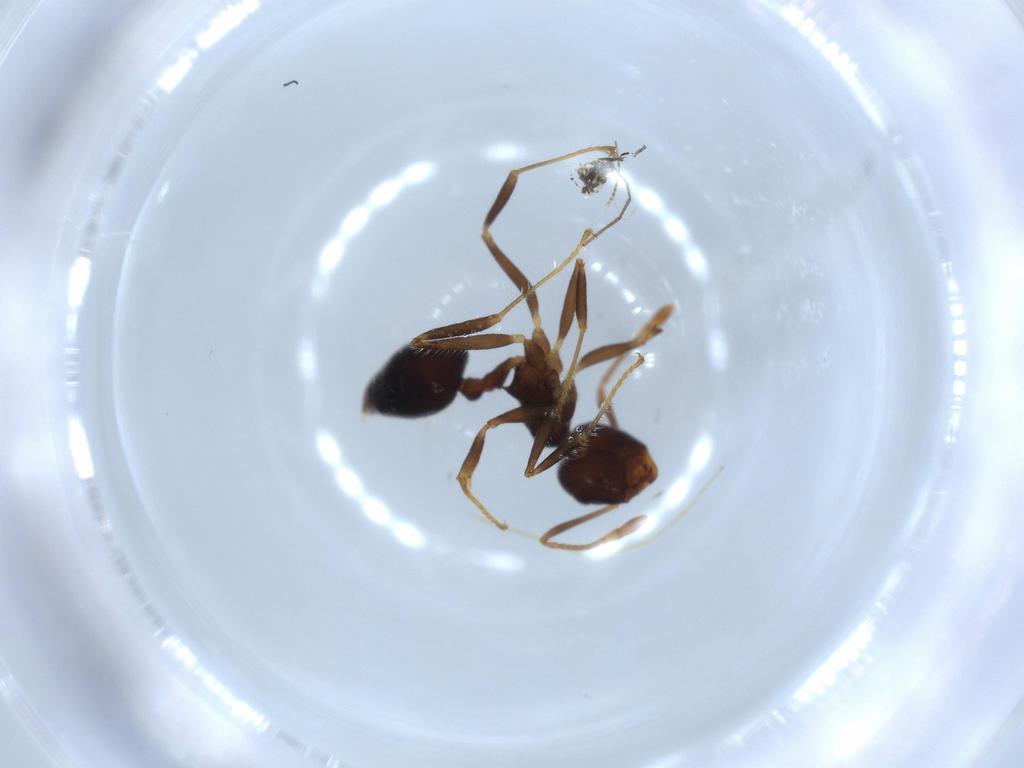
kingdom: Animalia
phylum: Arthropoda
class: Insecta
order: Hymenoptera
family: Formicidae
